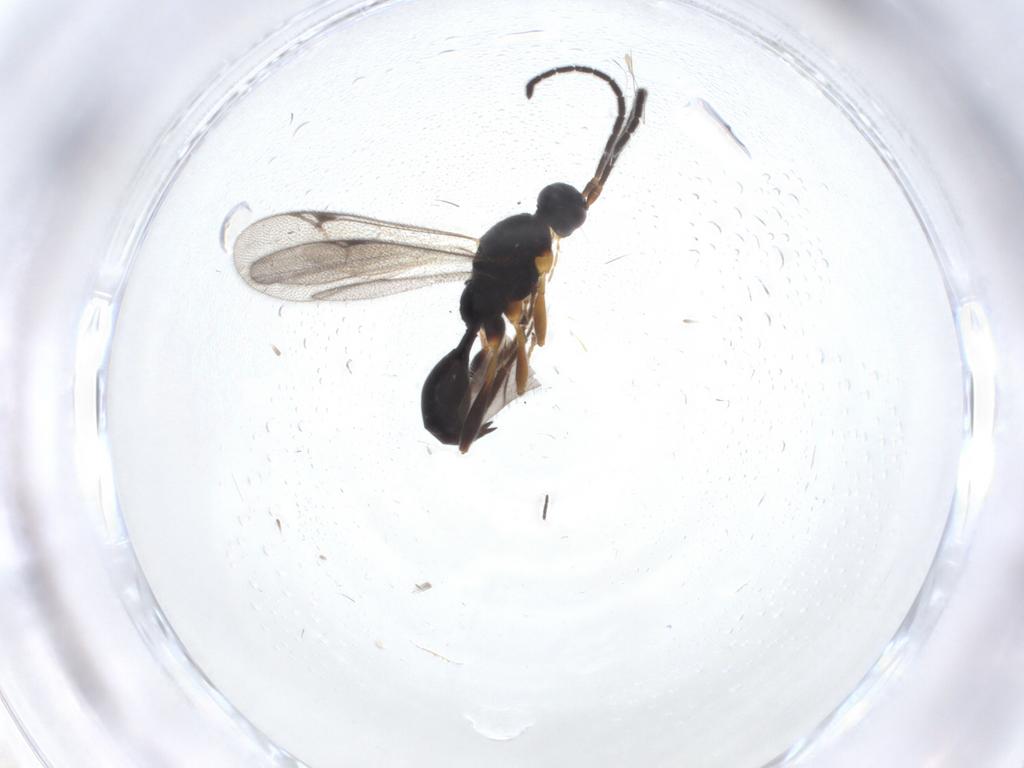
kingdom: Animalia
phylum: Arthropoda
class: Insecta
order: Hymenoptera
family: Proctotrupidae
